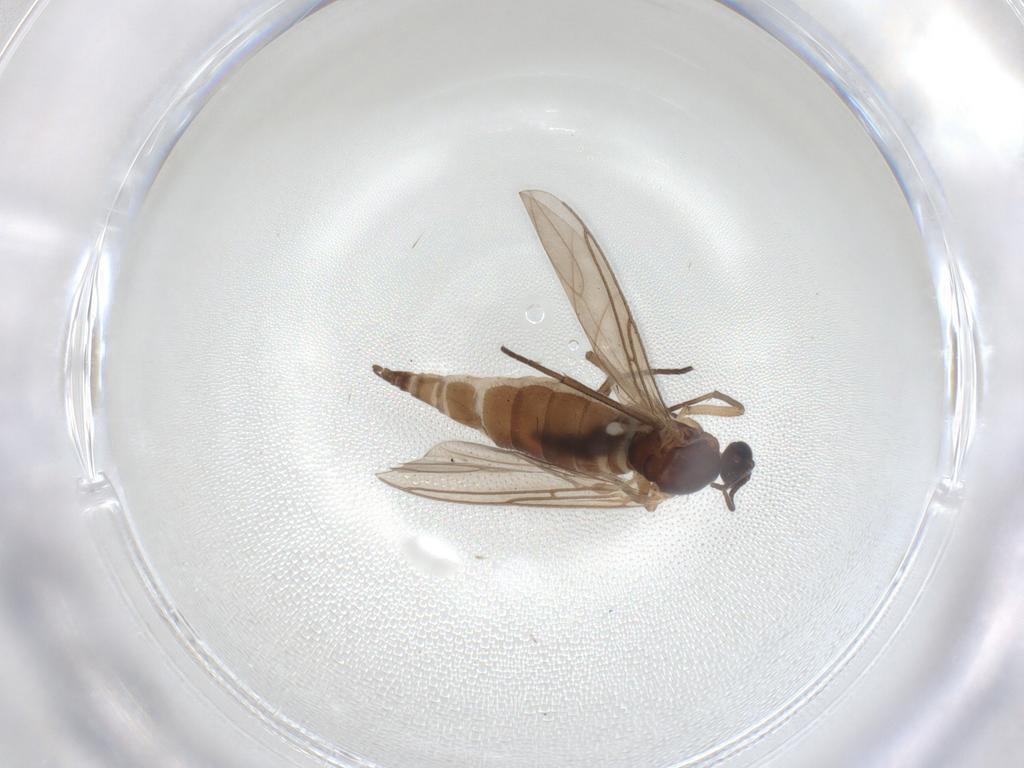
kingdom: Animalia
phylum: Arthropoda
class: Insecta
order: Diptera
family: Sciaridae
